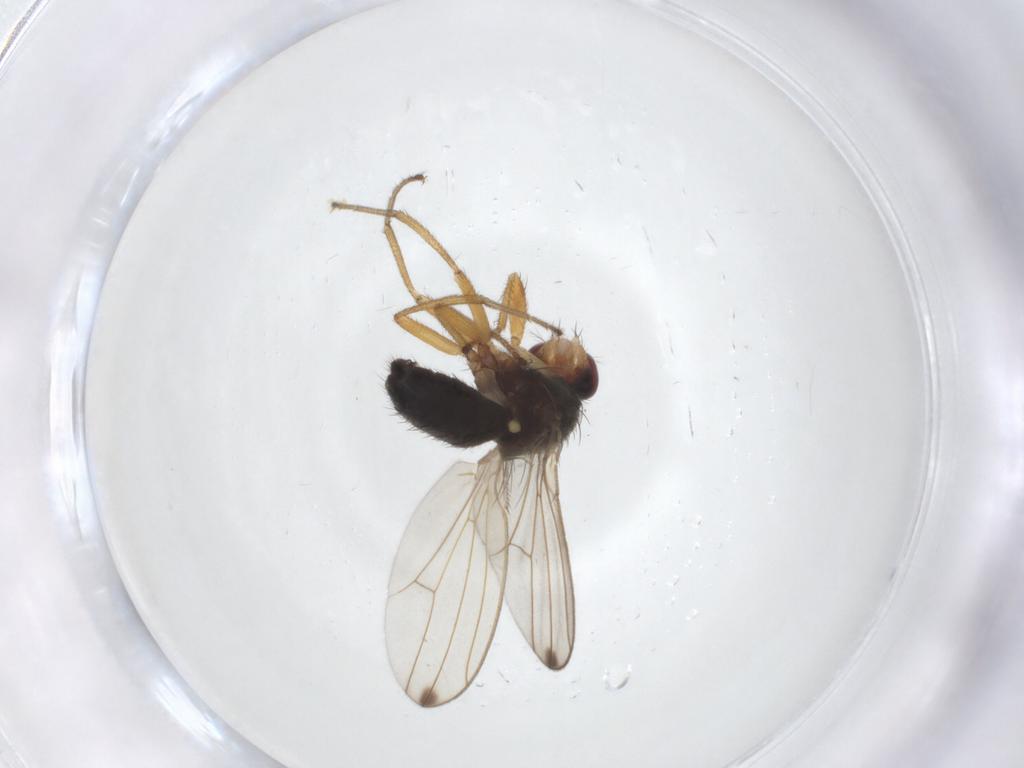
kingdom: Animalia
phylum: Arthropoda
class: Insecta
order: Diptera
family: Drosophilidae
